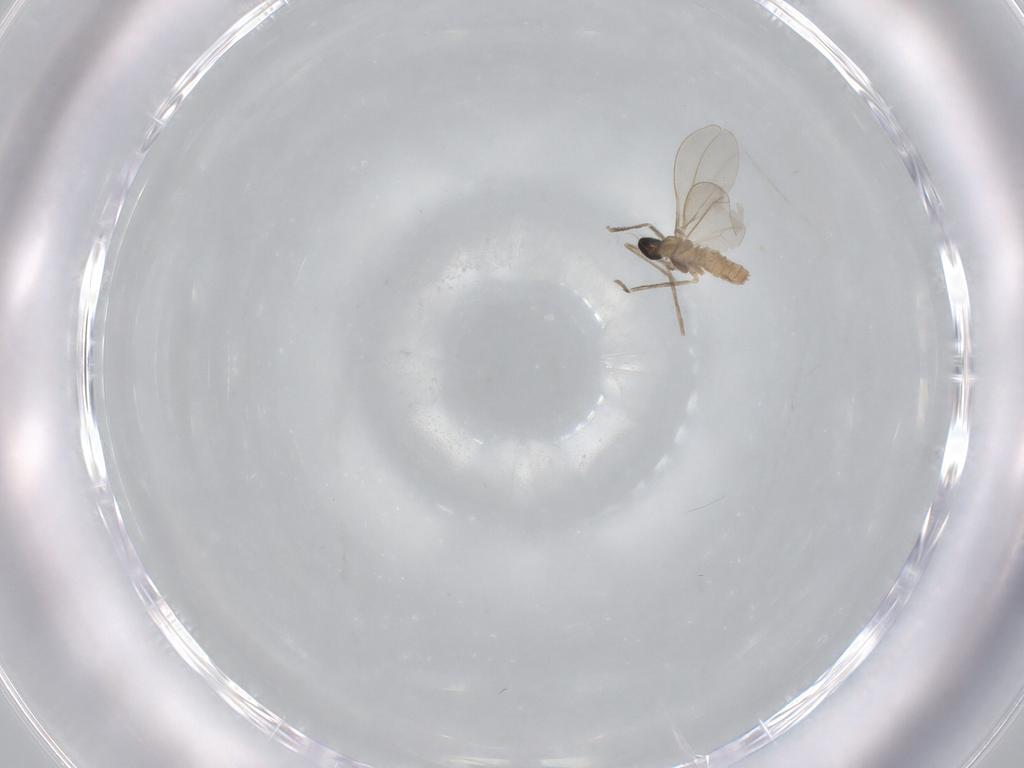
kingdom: Animalia
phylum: Arthropoda
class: Insecta
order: Diptera
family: Cecidomyiidae
